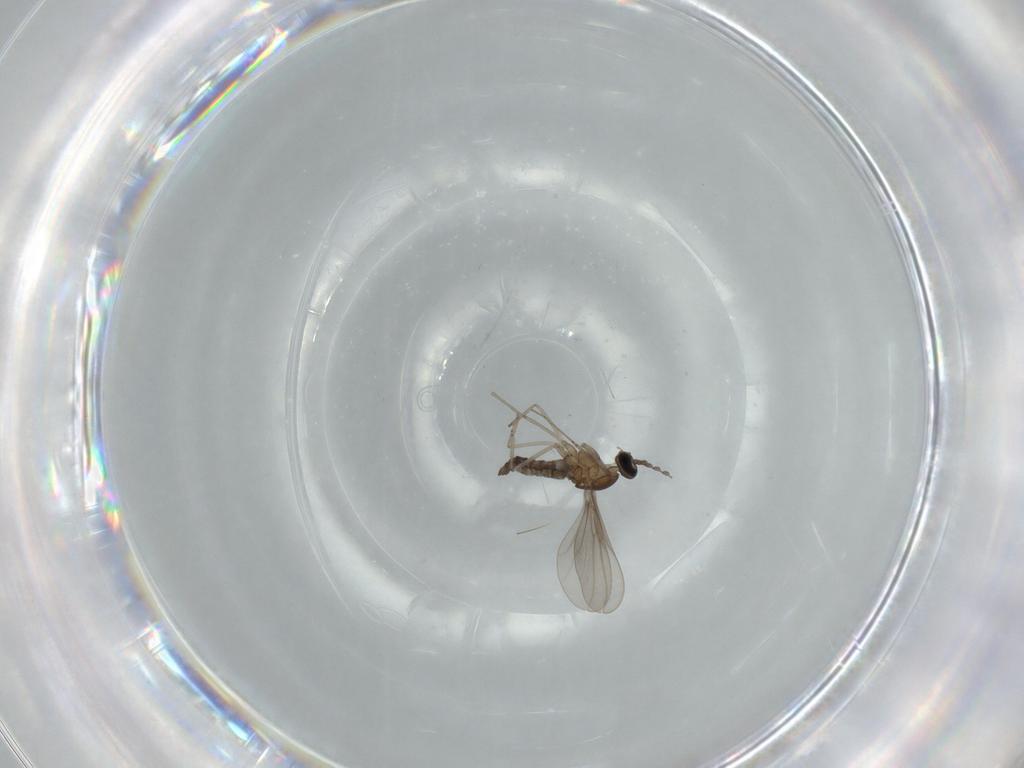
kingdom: Animalia
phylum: Arthropoda
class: Insecta
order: Diptera
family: Cecidomyiidae
